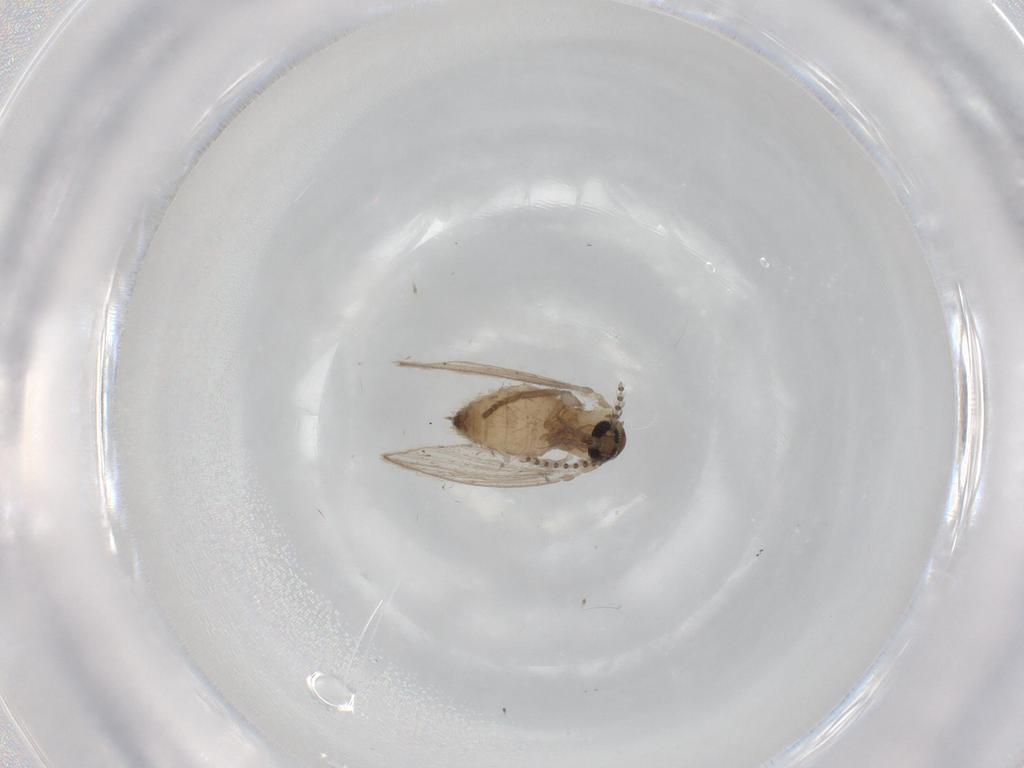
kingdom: Animalia
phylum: Arthropoda
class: Insecta
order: Diptera
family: Psychodidae
